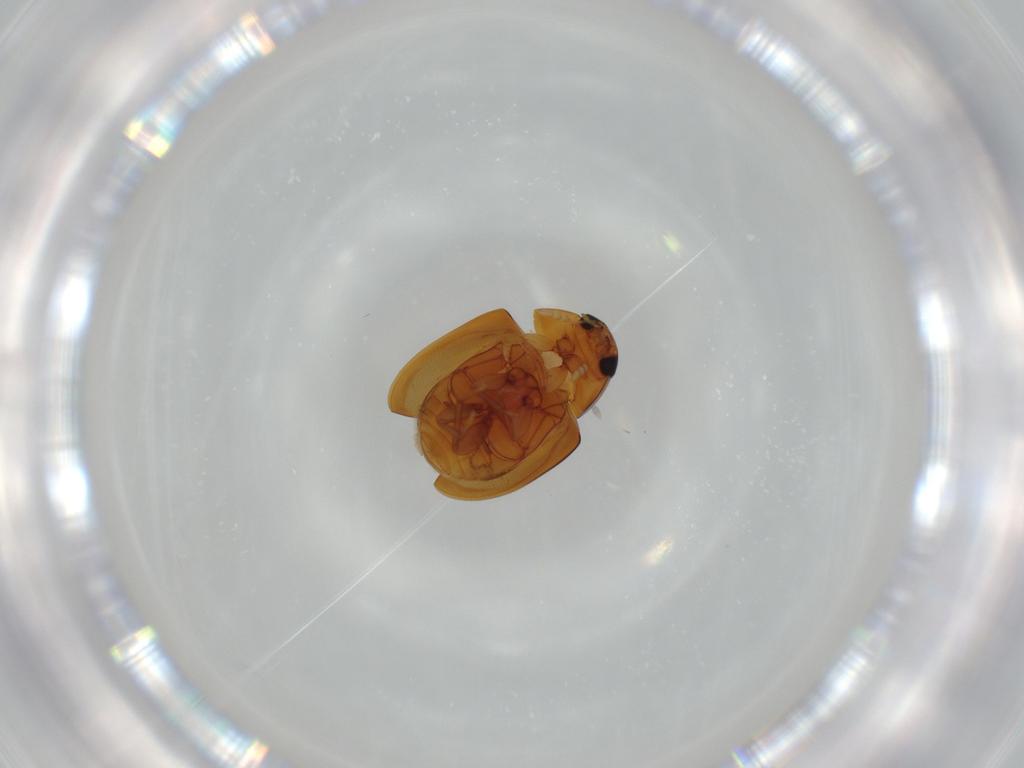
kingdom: Animalia
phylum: Arthropoda
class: Insecta
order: Coleoptera
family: Phalacridae
